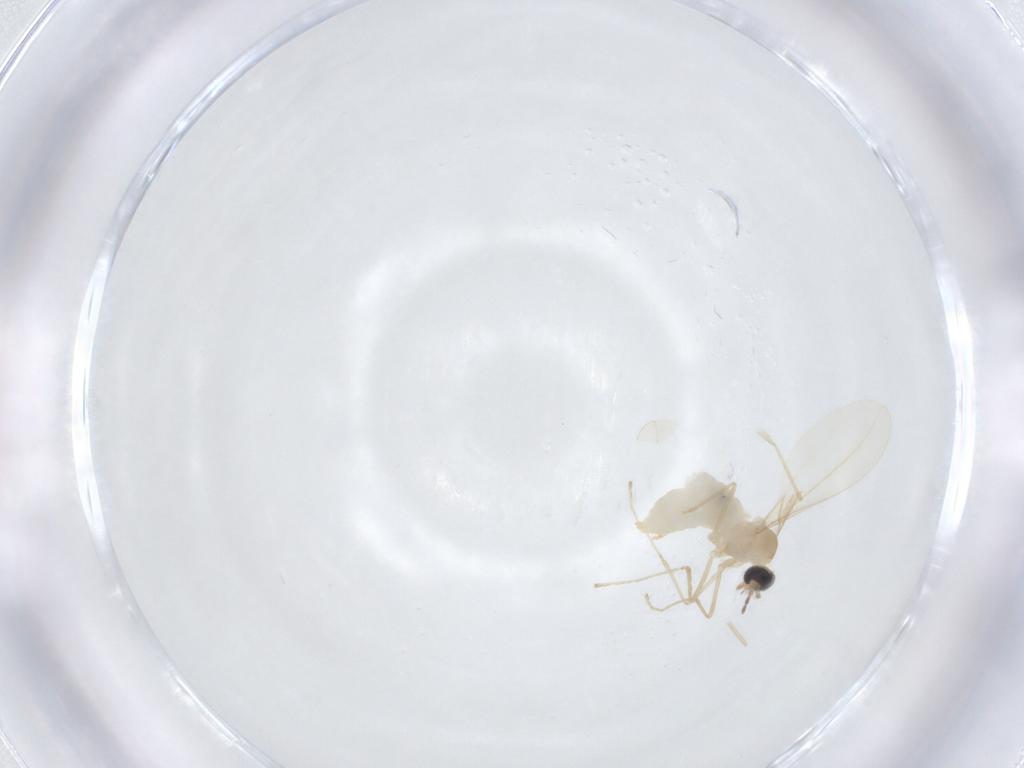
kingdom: Animalia
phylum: Arthropoda
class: Insecta
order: Diptera
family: Cecidomyiidae
